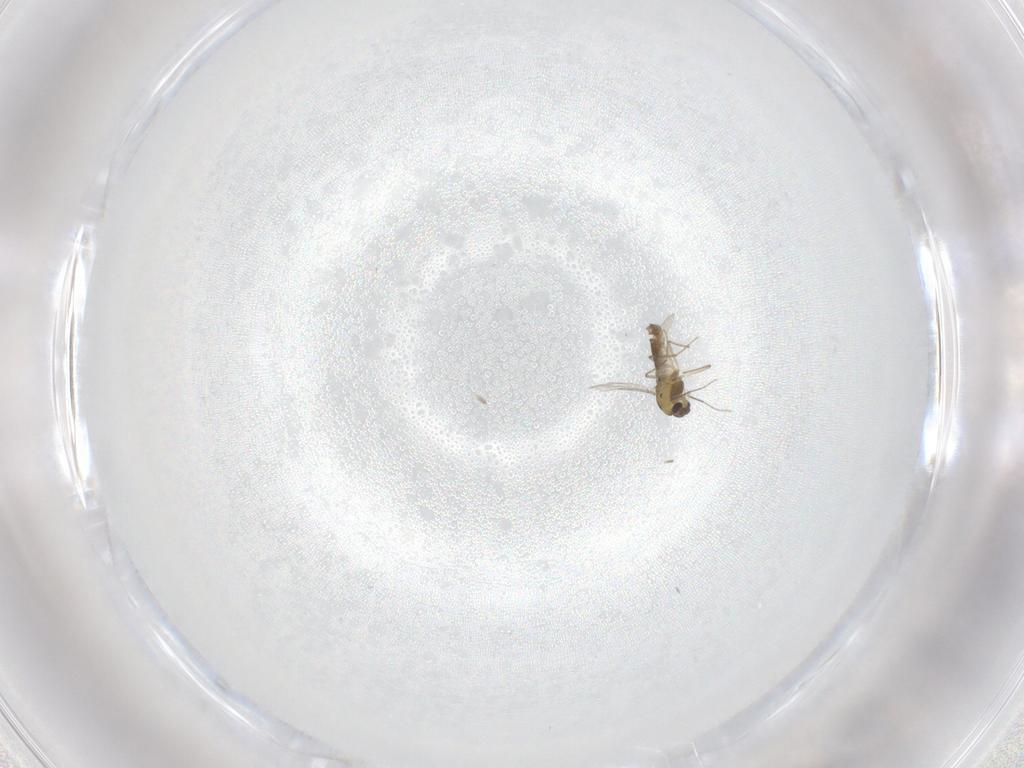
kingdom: Animalia
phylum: Arthropoda
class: Insecta
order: Diptera
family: Chironomidae
